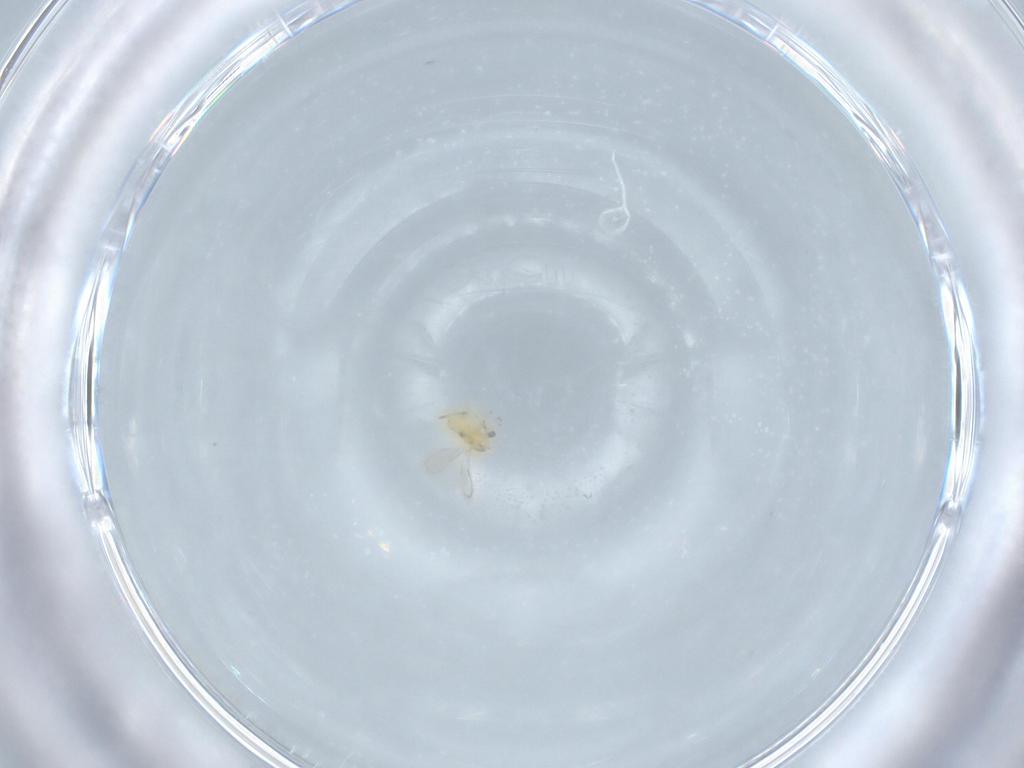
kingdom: Animalia
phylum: Arthropoda
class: Insecta
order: Hymenoptera
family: Aphelinidae
